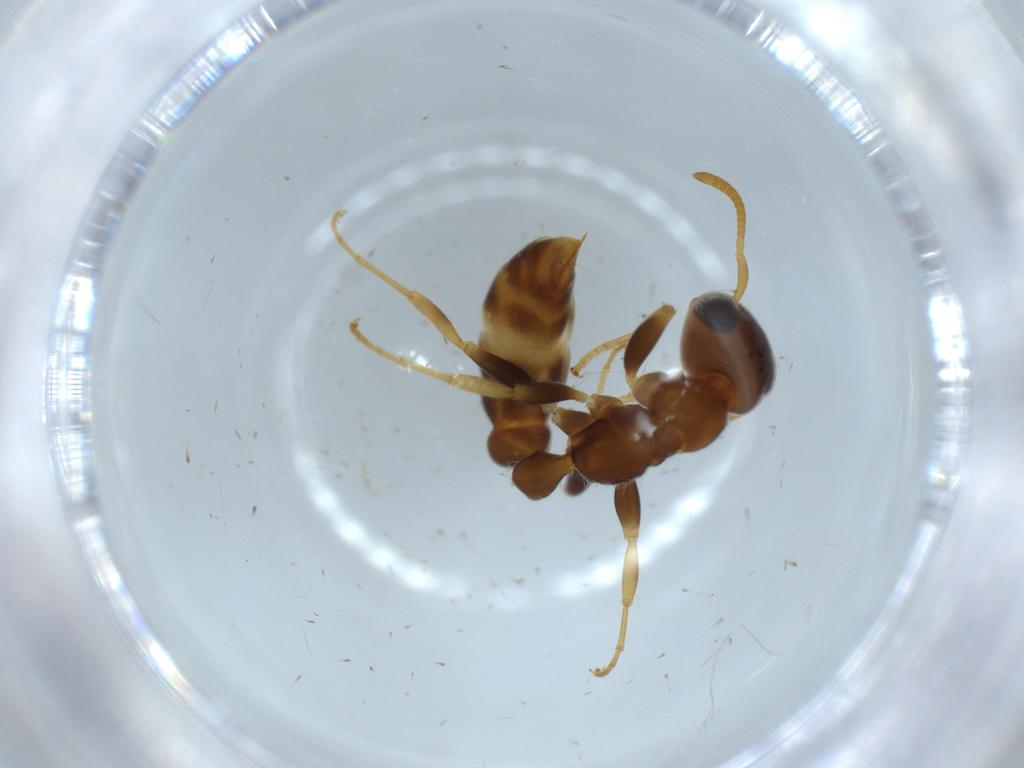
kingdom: Animalia
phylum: Arthropoda
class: Insecta
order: Hymenoptera
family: Formicidae
